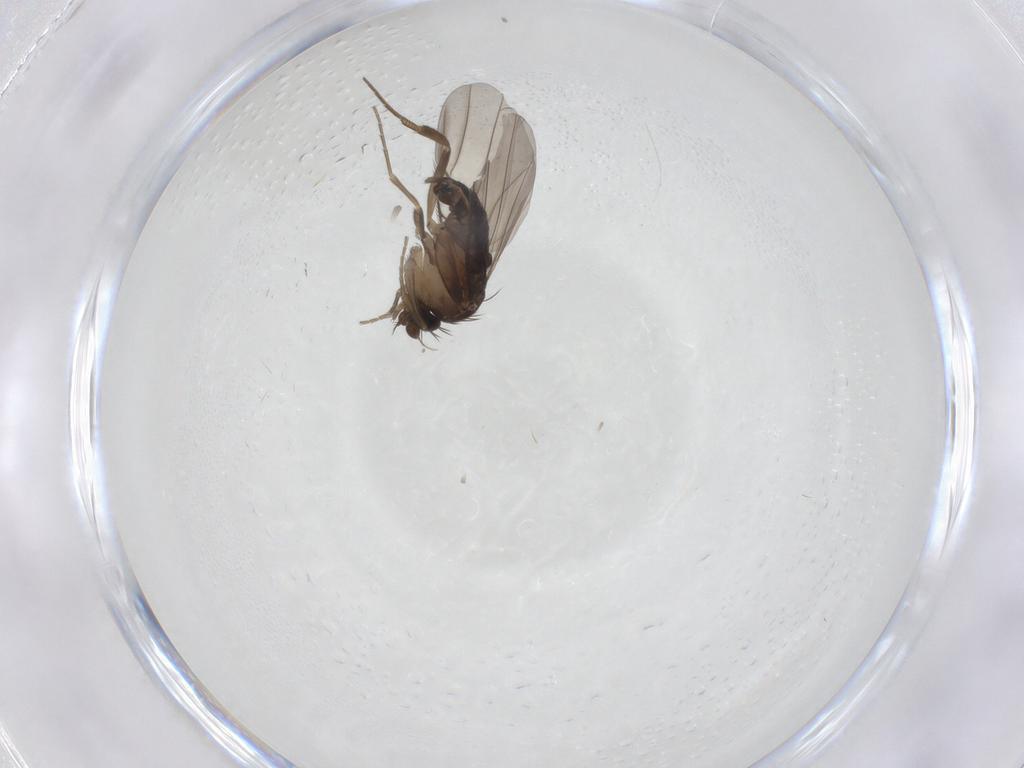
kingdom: Animalia
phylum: Arthropoda
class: Insecta
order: Diptera
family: Phoridae
